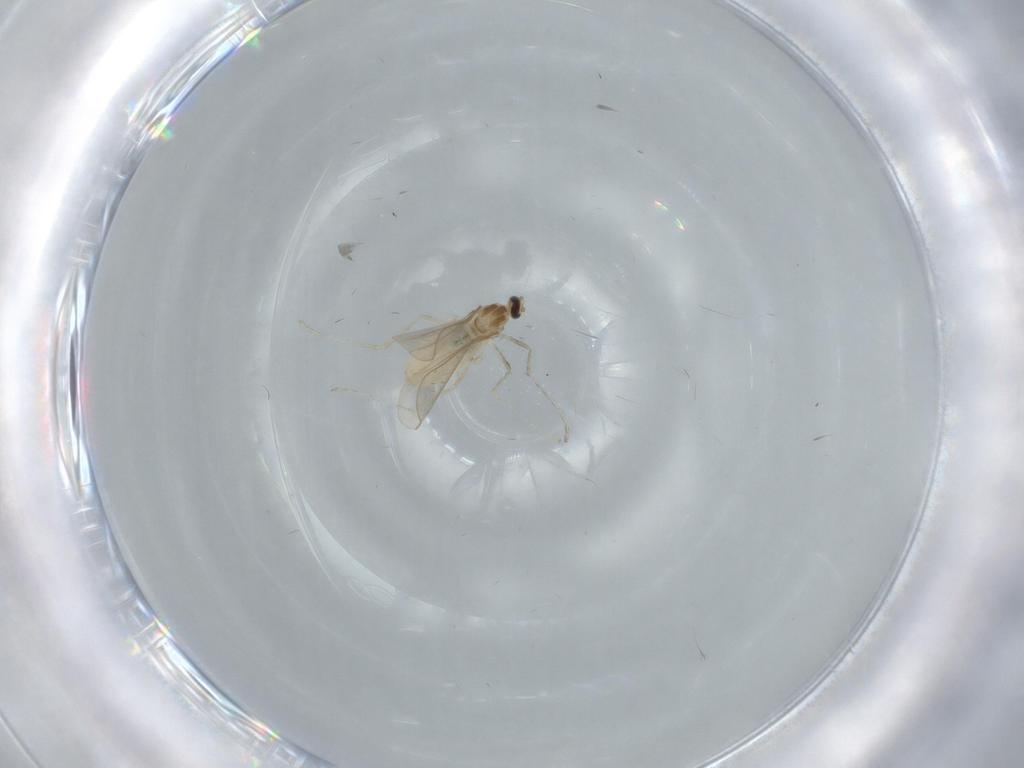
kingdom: Animalia
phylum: Arthropoda
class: Insecta
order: Diptera
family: Cecidomyiidae
